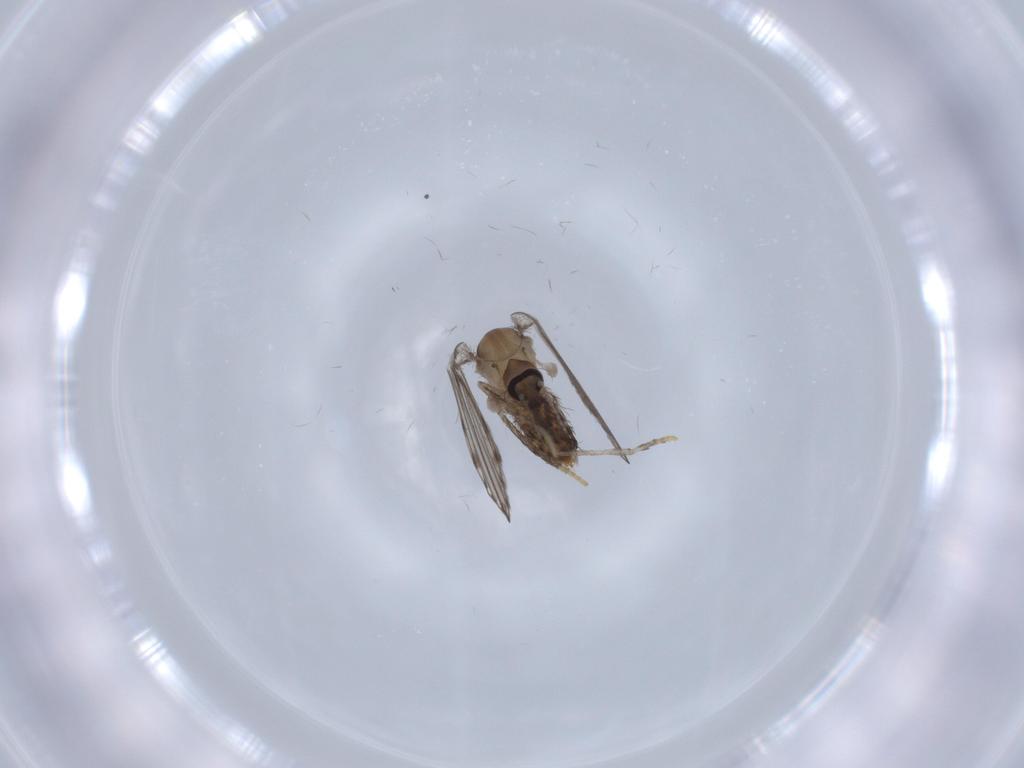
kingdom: Animalia
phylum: Arthropoda
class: Insecta
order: Diptera
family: Psychodidae
